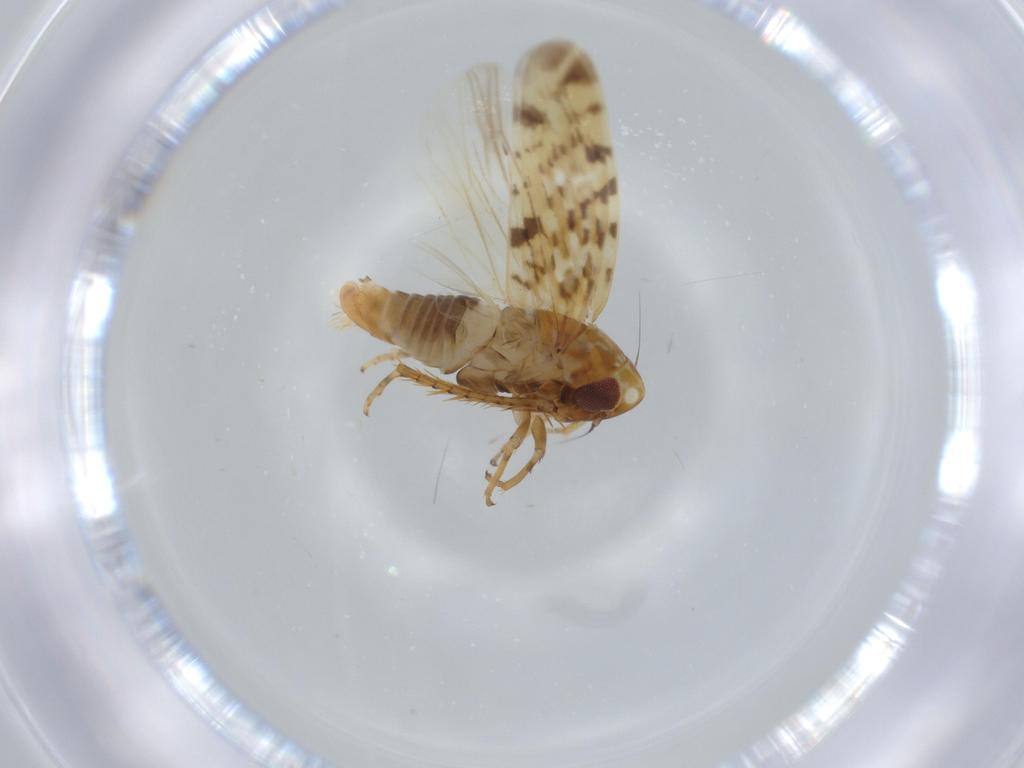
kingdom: Animalia
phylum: Arthropoda
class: Insecta
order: Hemiptera
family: Cicadellidae
